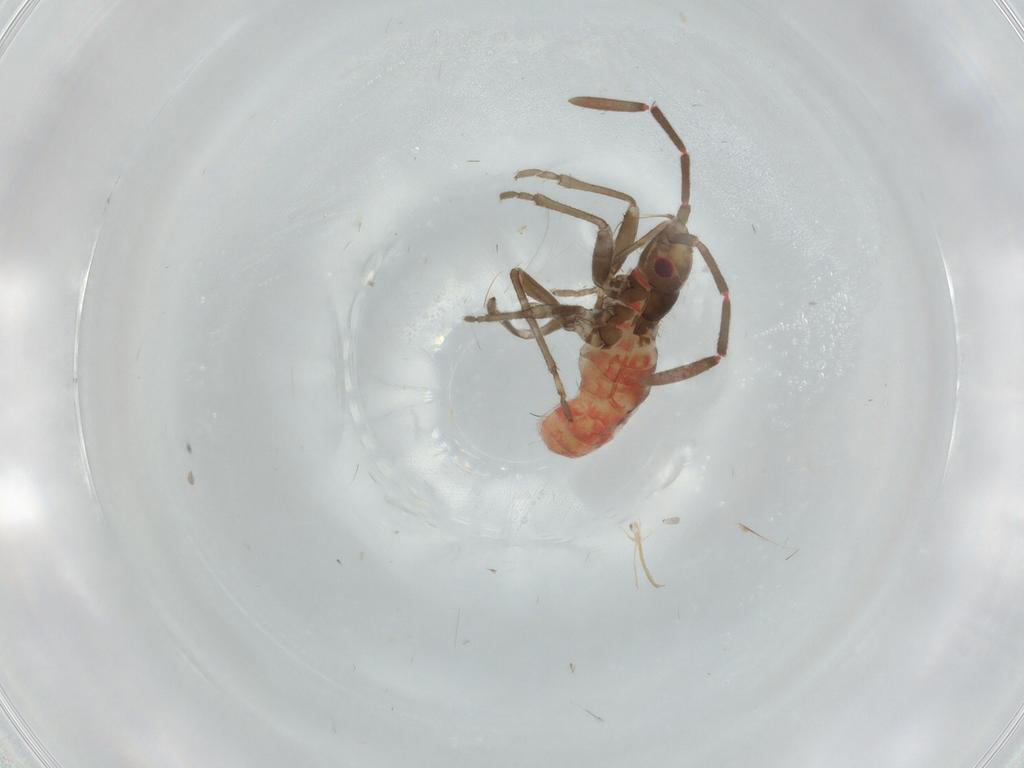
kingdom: Animalia
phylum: Arthropoda
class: Insecta
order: Hemiptera
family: Rhyparochromidae
